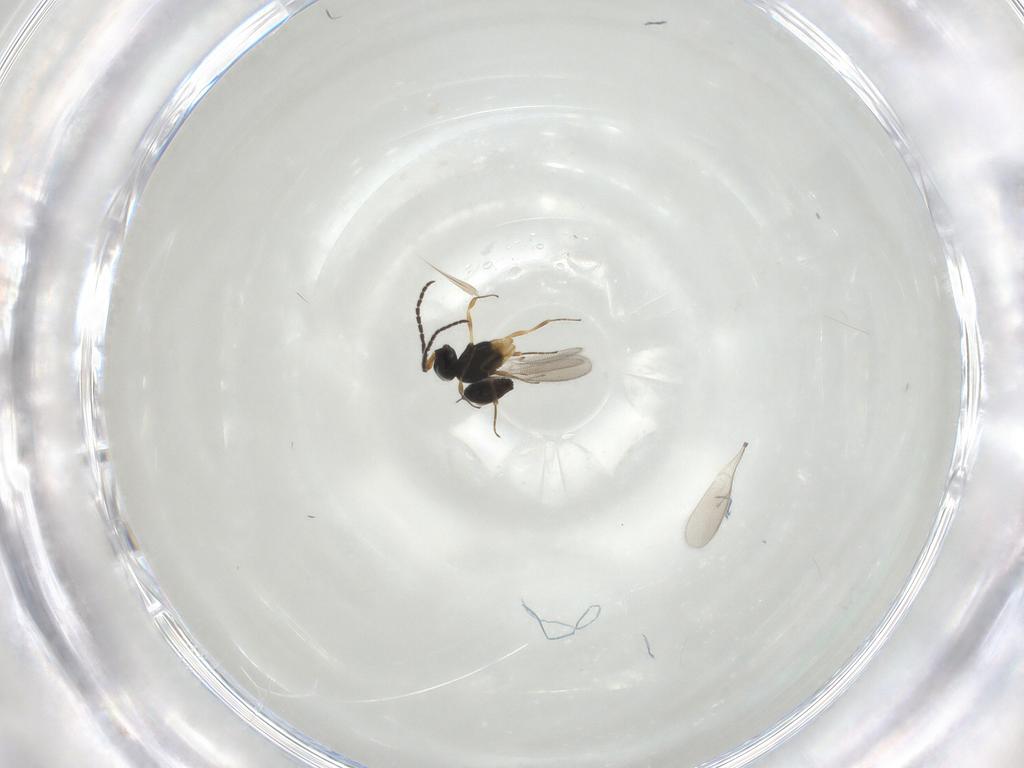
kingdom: Animalia
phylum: Arthropoda
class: Insecta
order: Hymenoptera
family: Scelionidae
